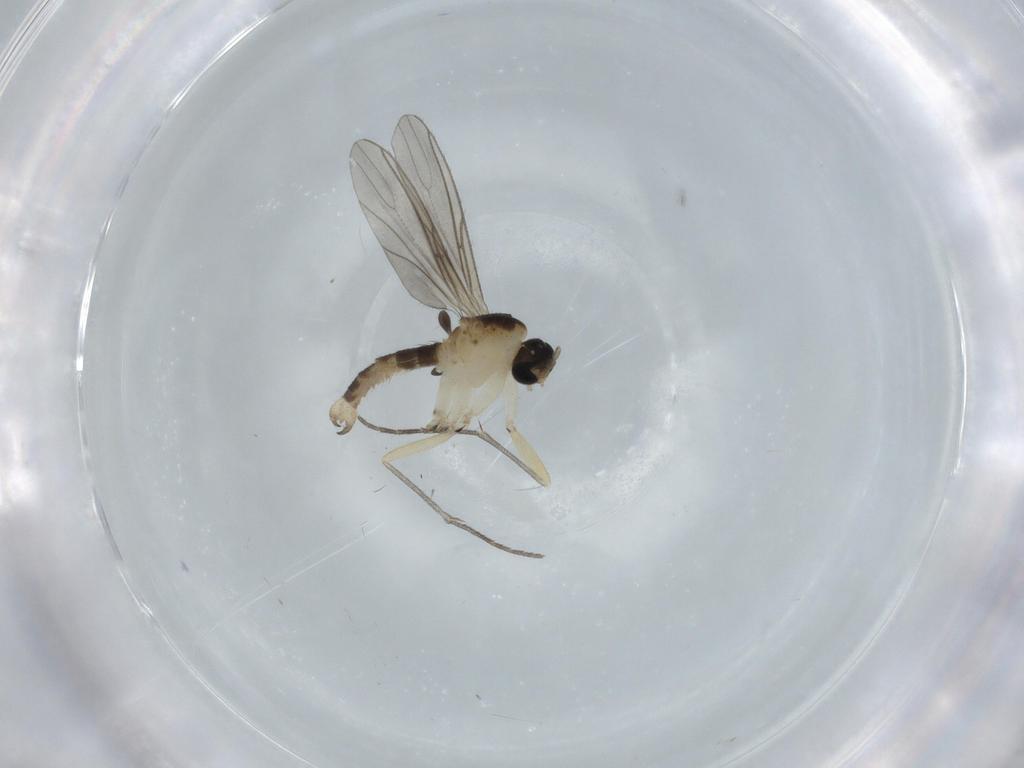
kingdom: Animalia
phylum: Arthropoda
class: Insecta
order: Diptera
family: Sciaridae
